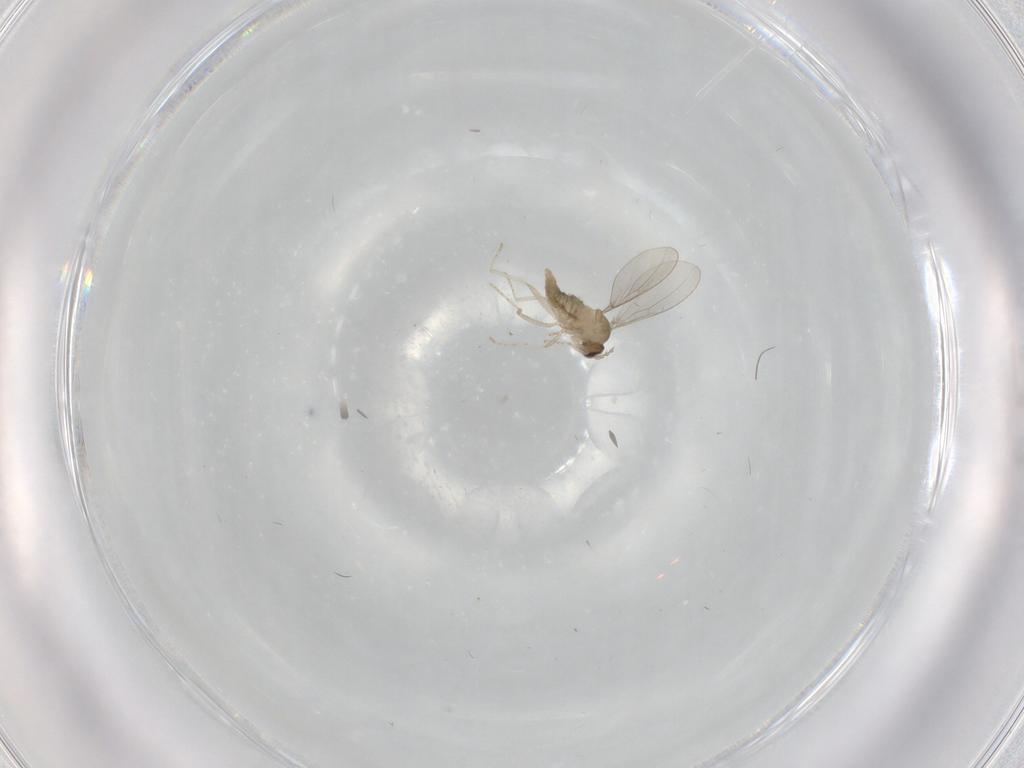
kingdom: Animalia
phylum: Arthropoda
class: Insecta
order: Diptera
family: Cecidomyiidae
